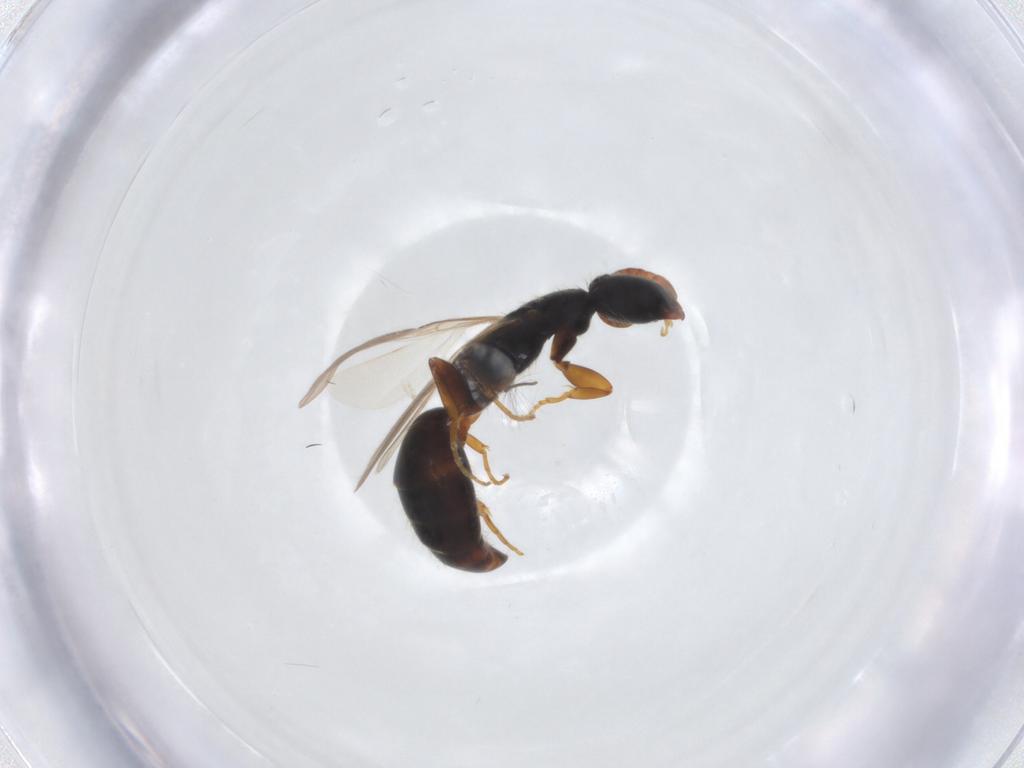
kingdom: Animalia
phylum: Arthropoda
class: Insecta
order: Hymenoptera
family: Bethylidae
